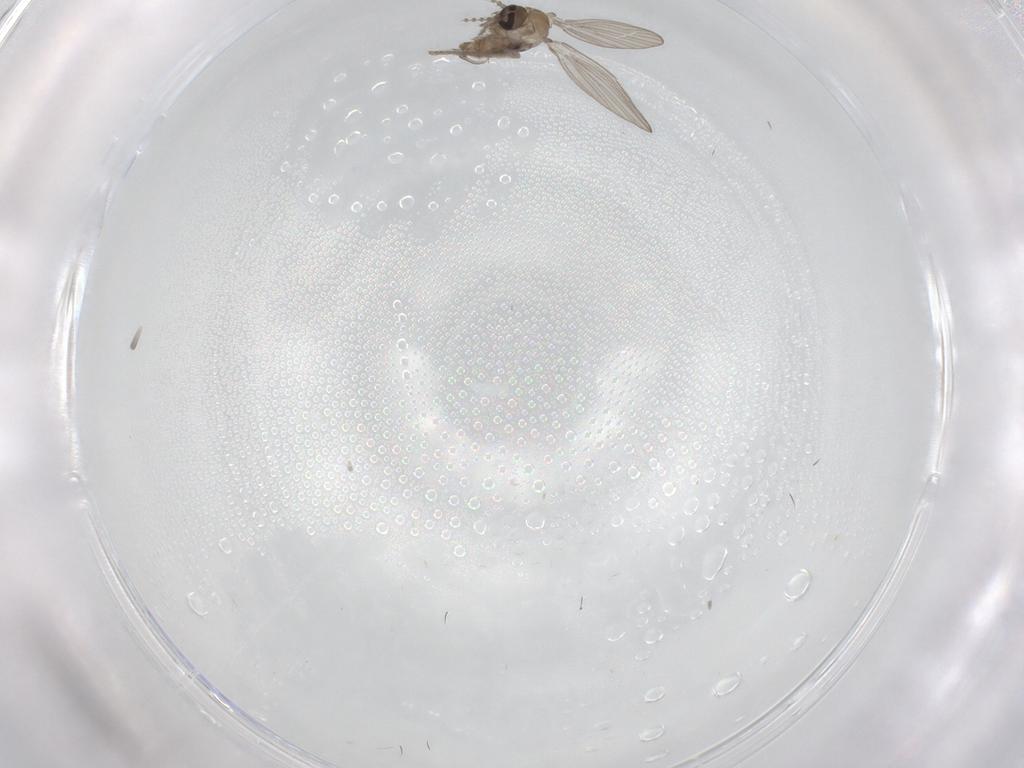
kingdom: Animalia
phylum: Arthropoda
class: Insecta
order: Diptera
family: Psychodidae
